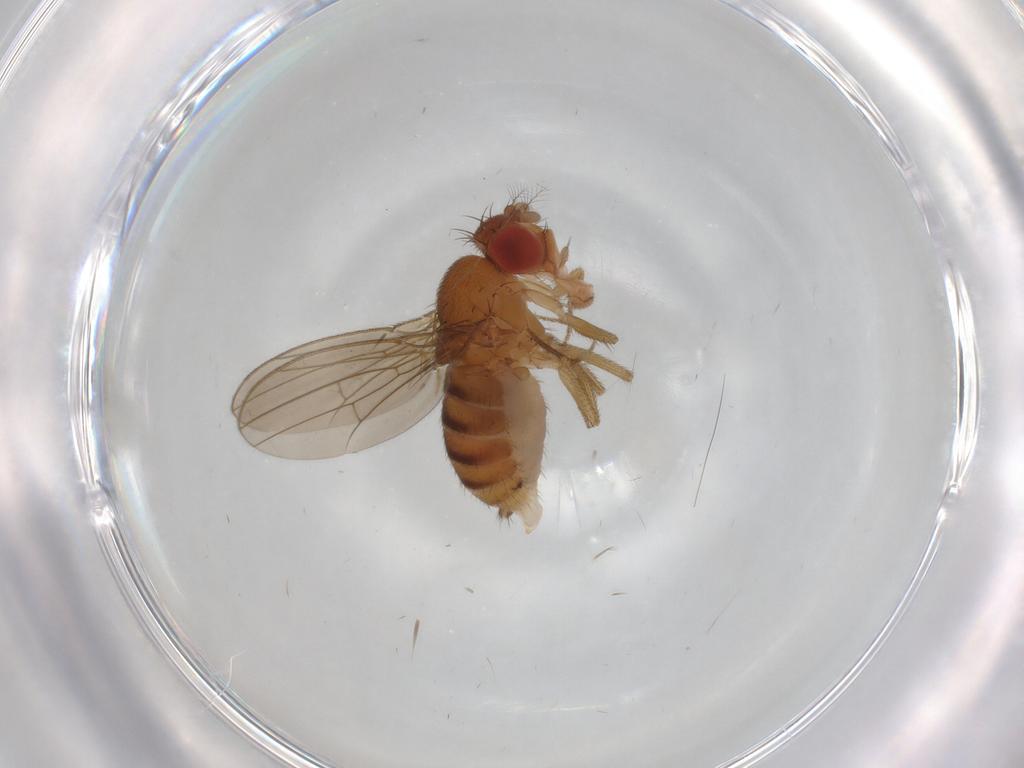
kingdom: Animalia
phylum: Arthropoda
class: Insecta
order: Diptera
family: Drosophilidae
